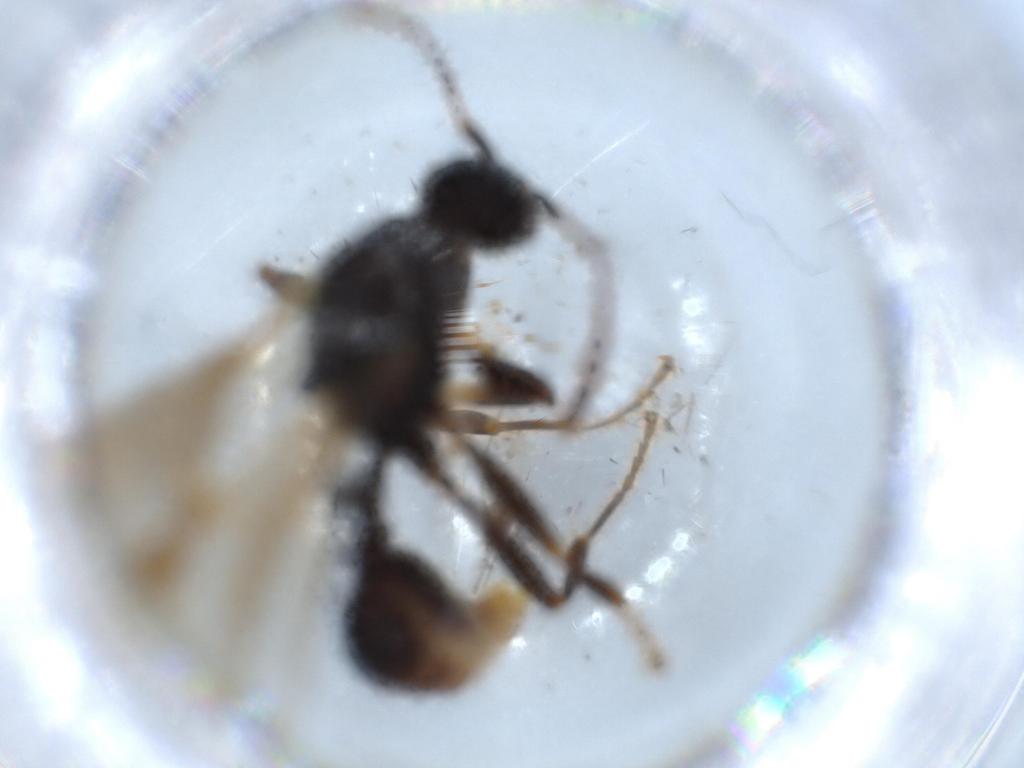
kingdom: Animalia
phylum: Arthropoda
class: Insecta
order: Hymenoptera
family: Formicidae
